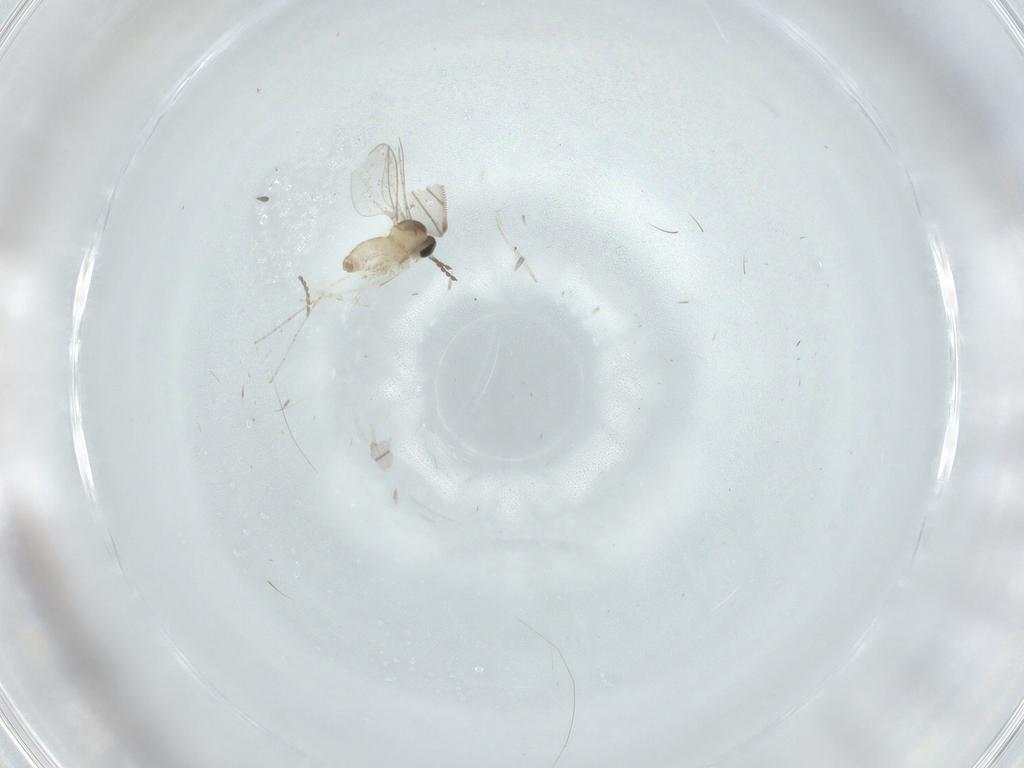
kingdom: Animalia
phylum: Arthropoda
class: Insecta
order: Diptera
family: Cecidomyiidae
